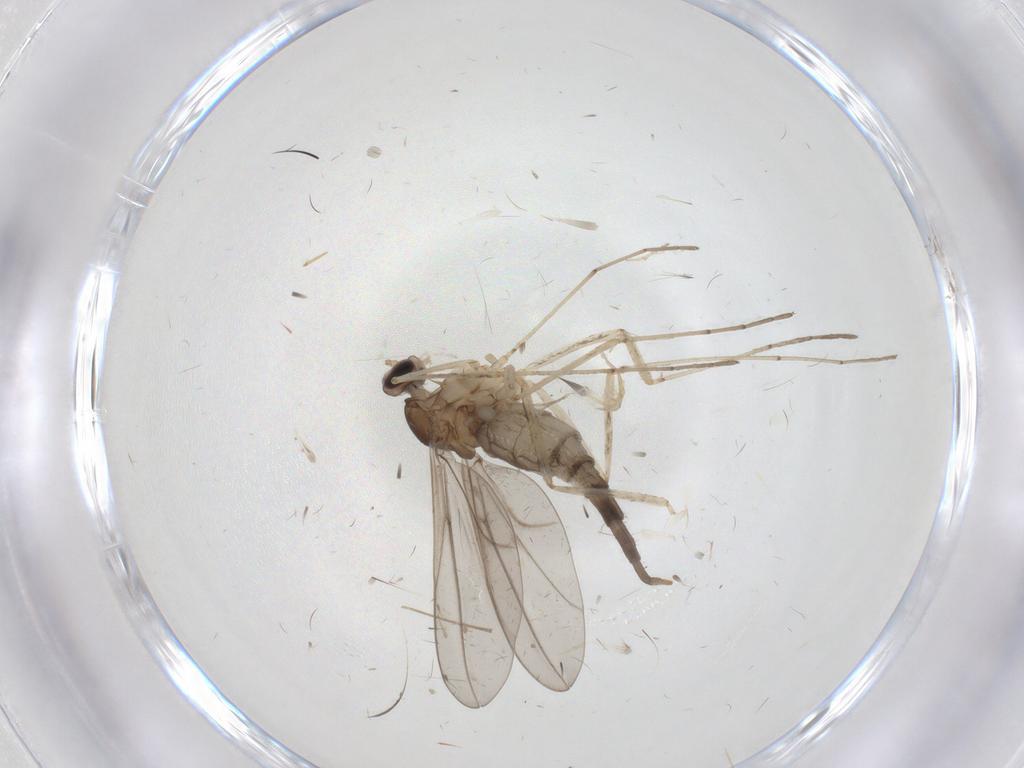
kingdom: Animalia
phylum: Arthropoda
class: Insecta
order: Diptera
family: Cecidomyiidae
